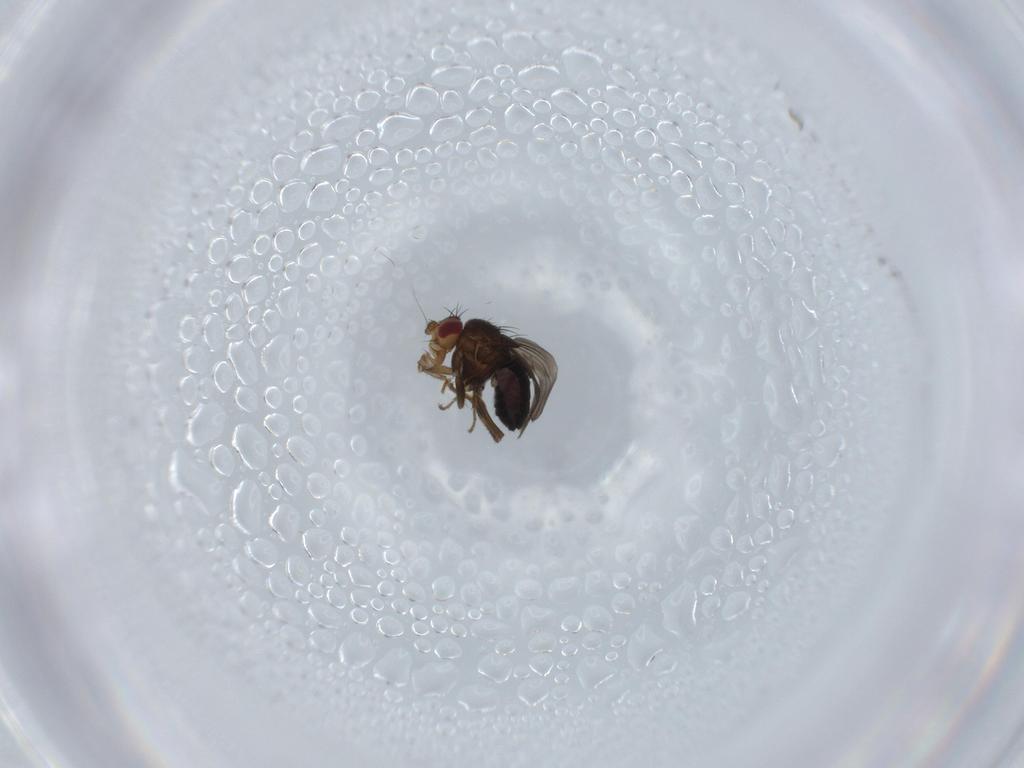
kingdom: Animalia
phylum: Arthropoda
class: Insecta
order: Diptera
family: Sphaeroceridae
